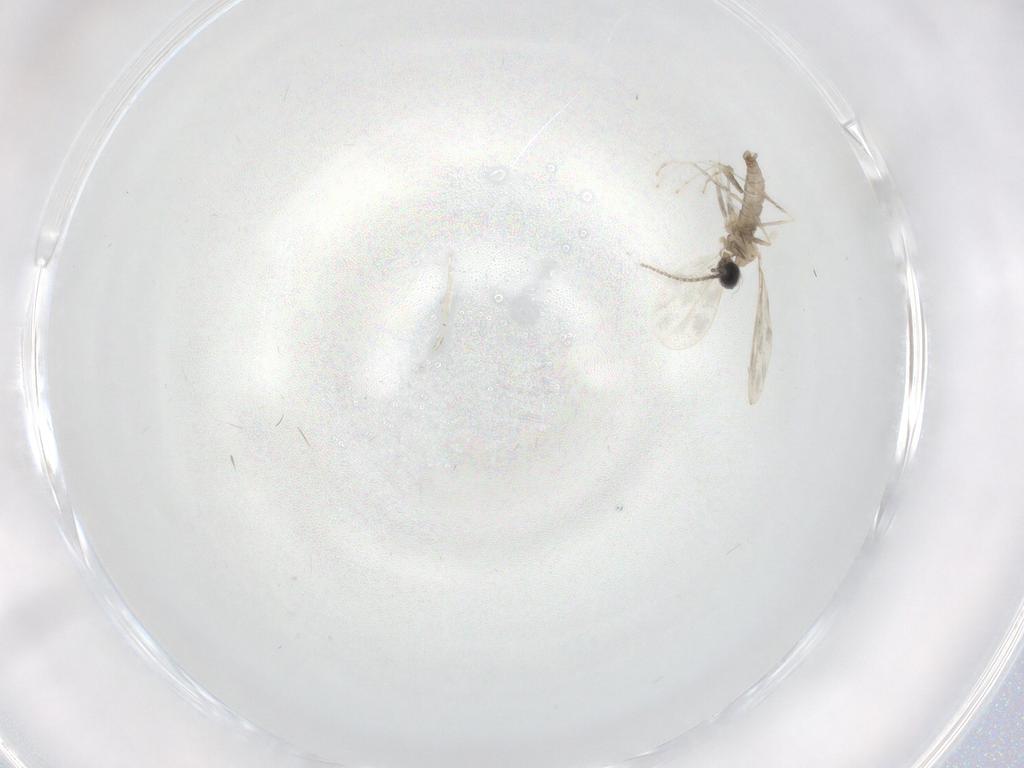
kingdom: Animalia
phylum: Arthropoda
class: Insecta
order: Diptera
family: Cecidomyiidae
